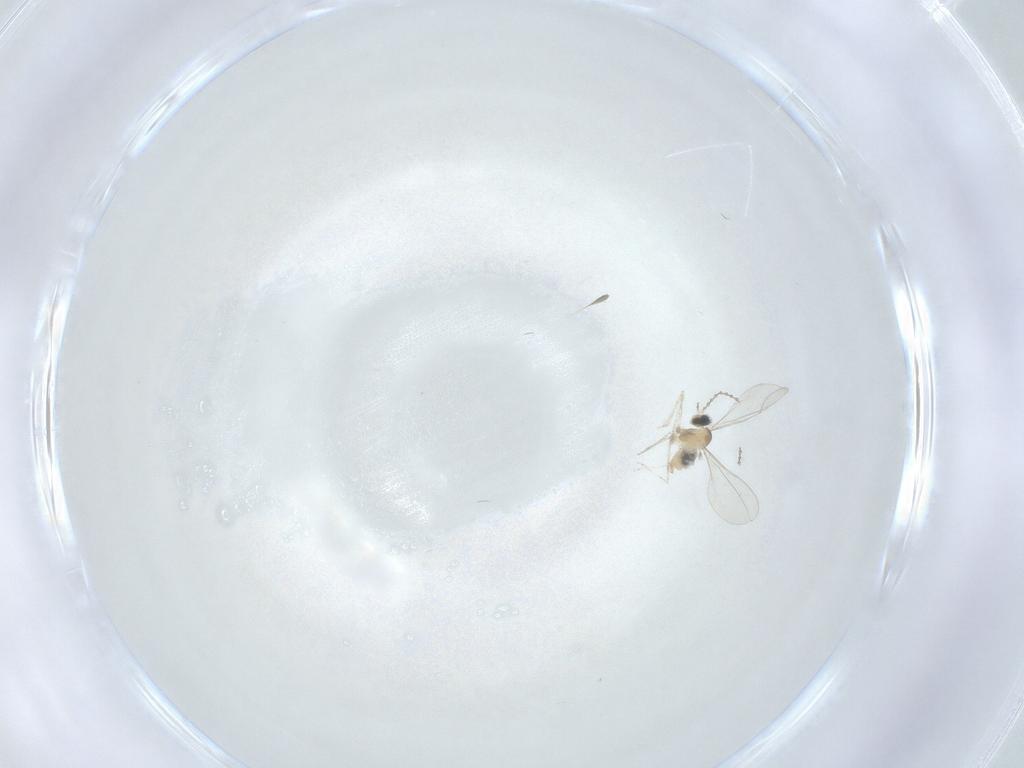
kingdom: Animalia
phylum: Arthropoda
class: Insecta
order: Diptera
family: Cecidomyiidae
